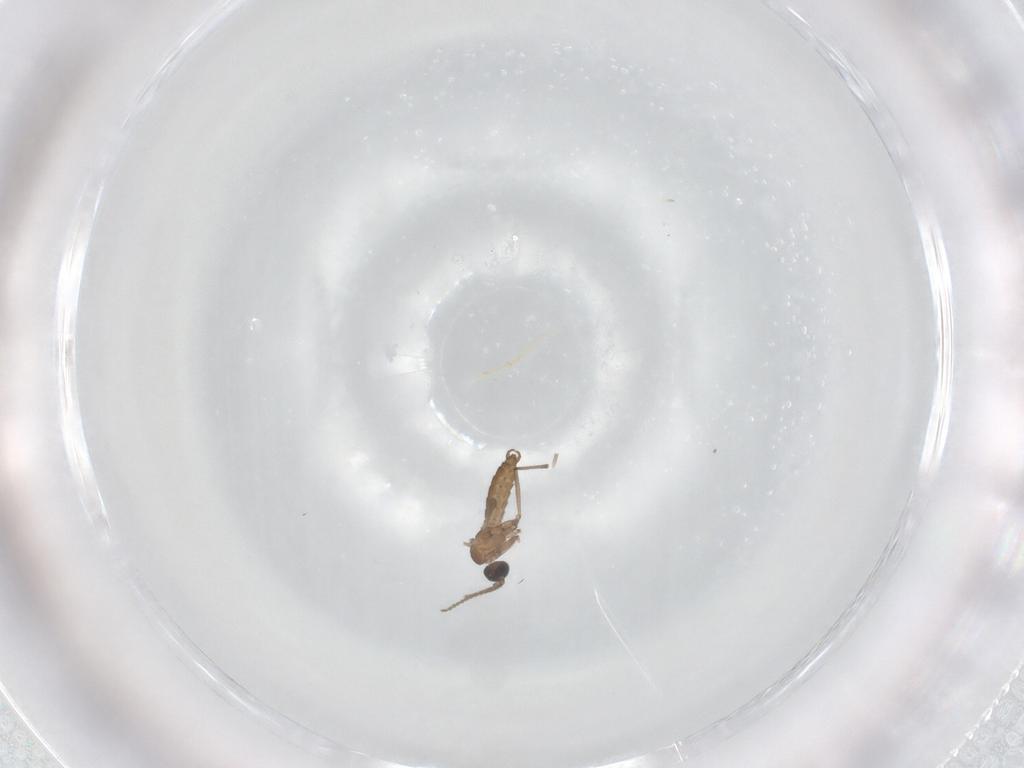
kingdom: Animalia
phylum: Arthropoda
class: Insecta
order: Diptera
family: Sciaridae
